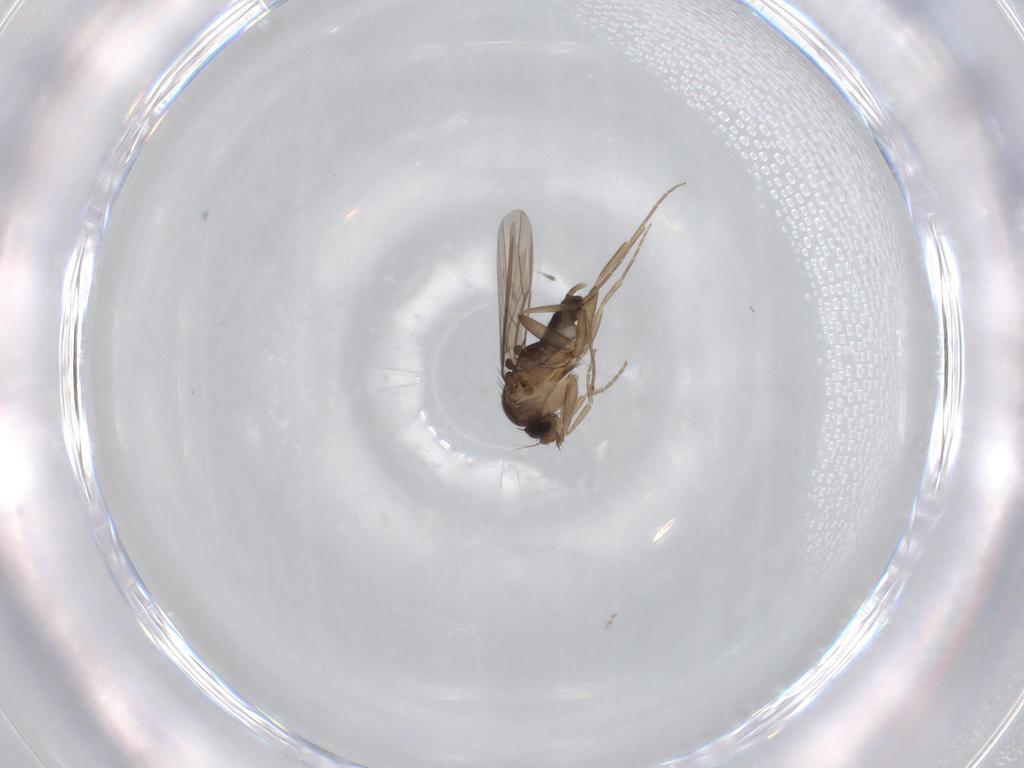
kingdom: Animalia
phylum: Arthropoda
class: Insecta
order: Diptera
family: Phoridae
